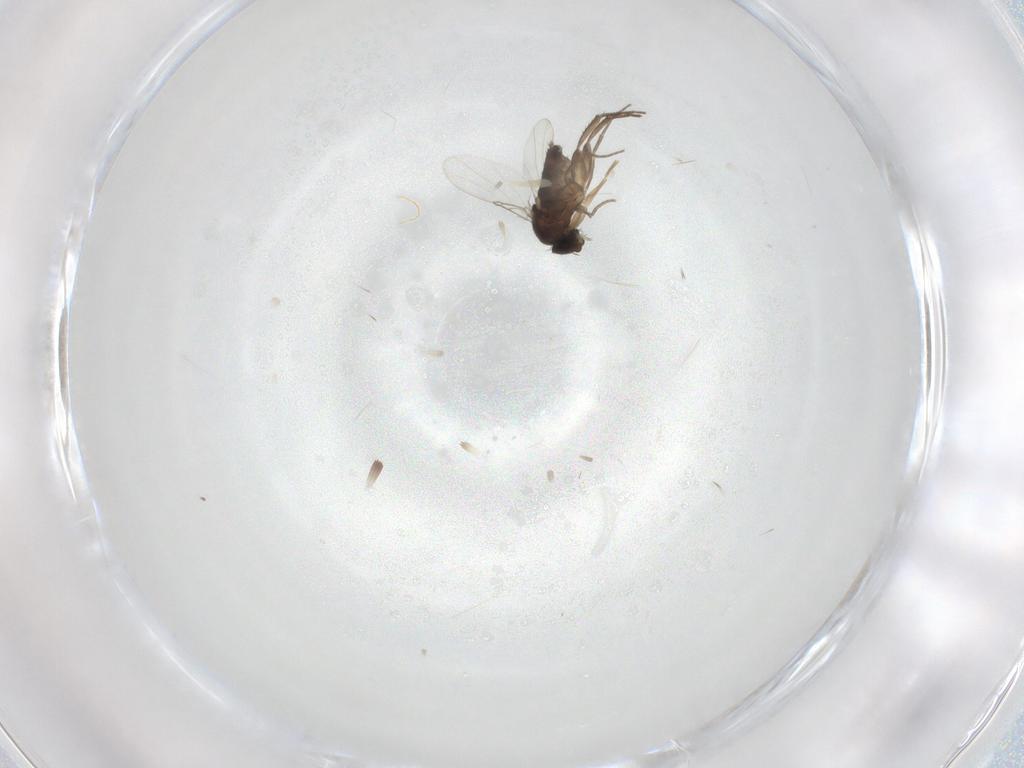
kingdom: Animalia
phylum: Arthropoda
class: Insecta
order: Diptera
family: Phoridae
